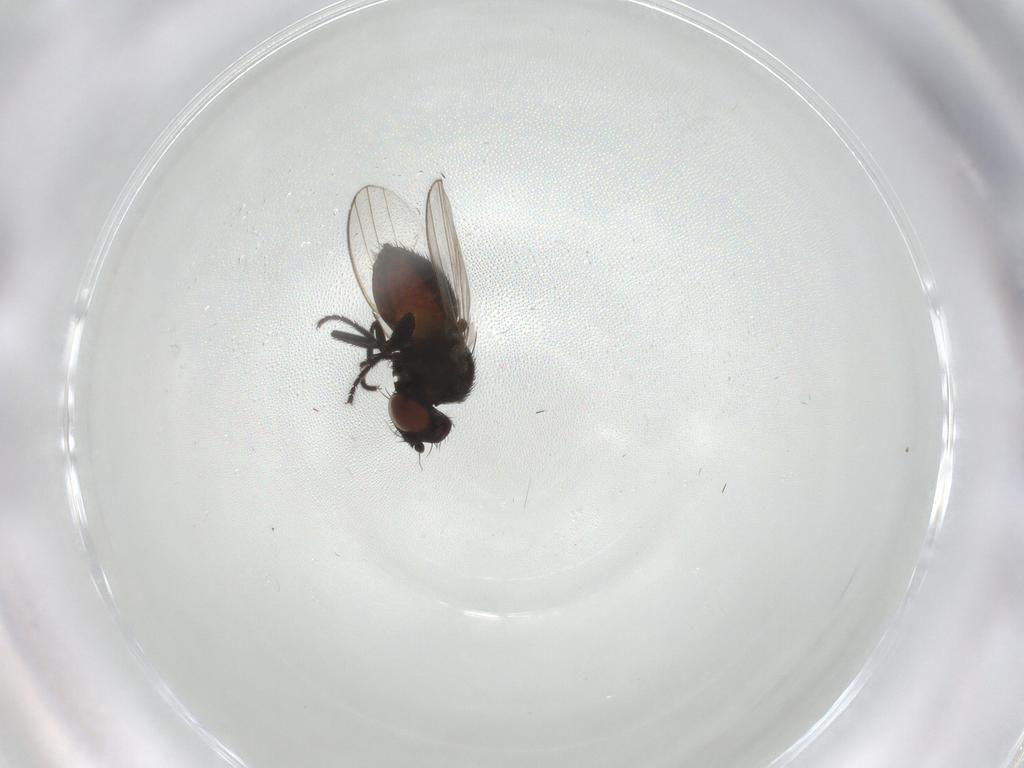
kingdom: Animalia
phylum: Arthropoda
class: Insecta
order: Diptera
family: Milichiidae
